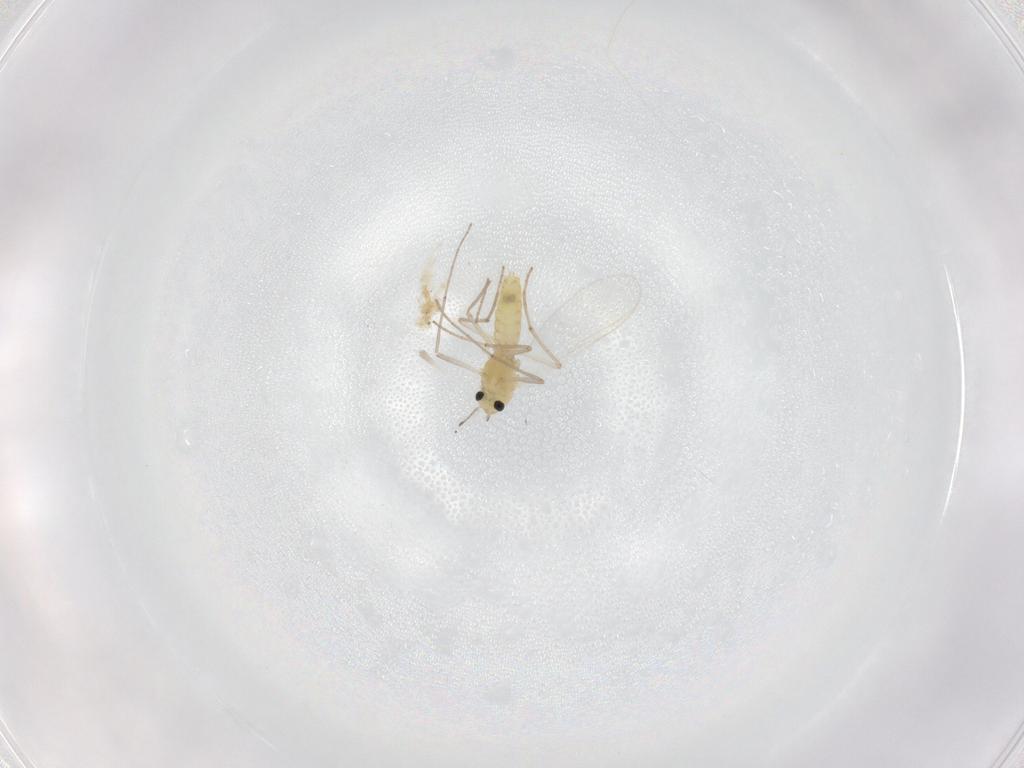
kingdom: Animalia
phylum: Arthropoda
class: Insecta
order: Diptera
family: Chironomidae
